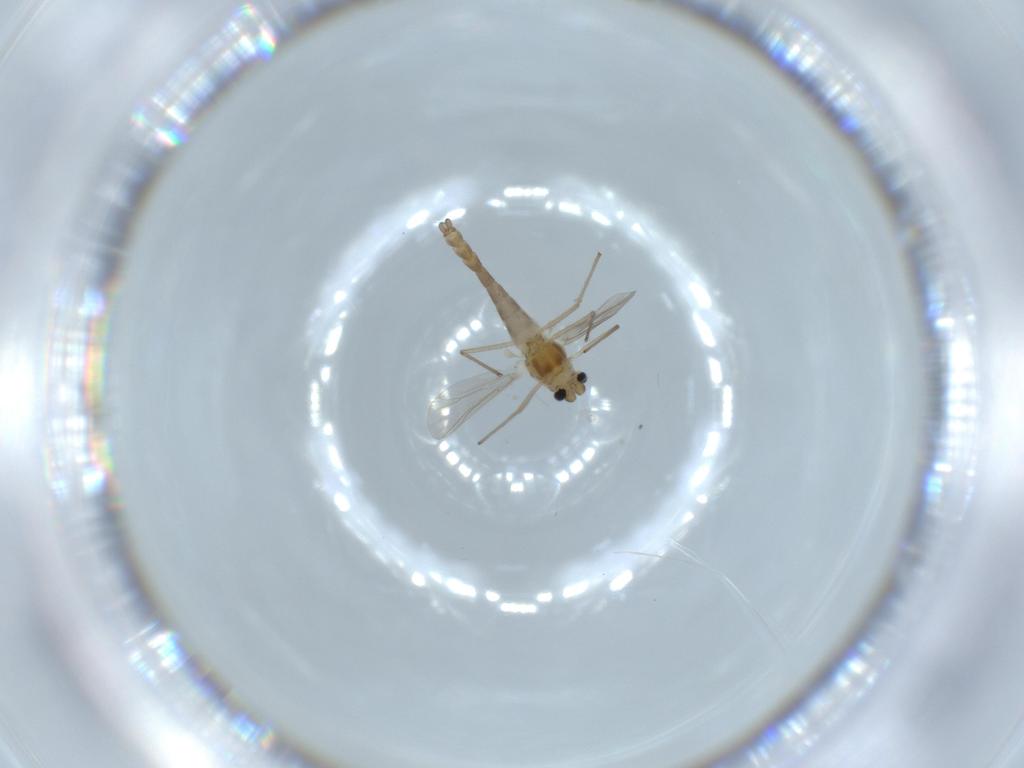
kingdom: Animalia
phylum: Arthropoda
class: Insecta
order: Diptera
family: Chironomidae
